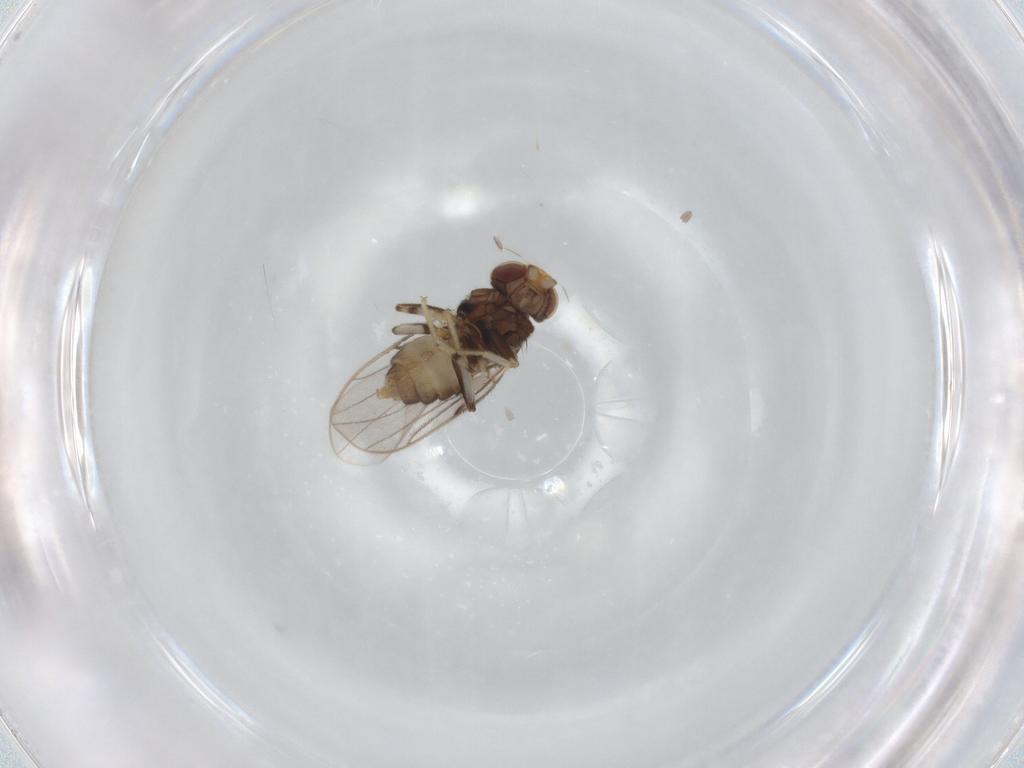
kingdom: Animalia
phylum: Arthropoda
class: Insecta
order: Diptera
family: Chloropidae
